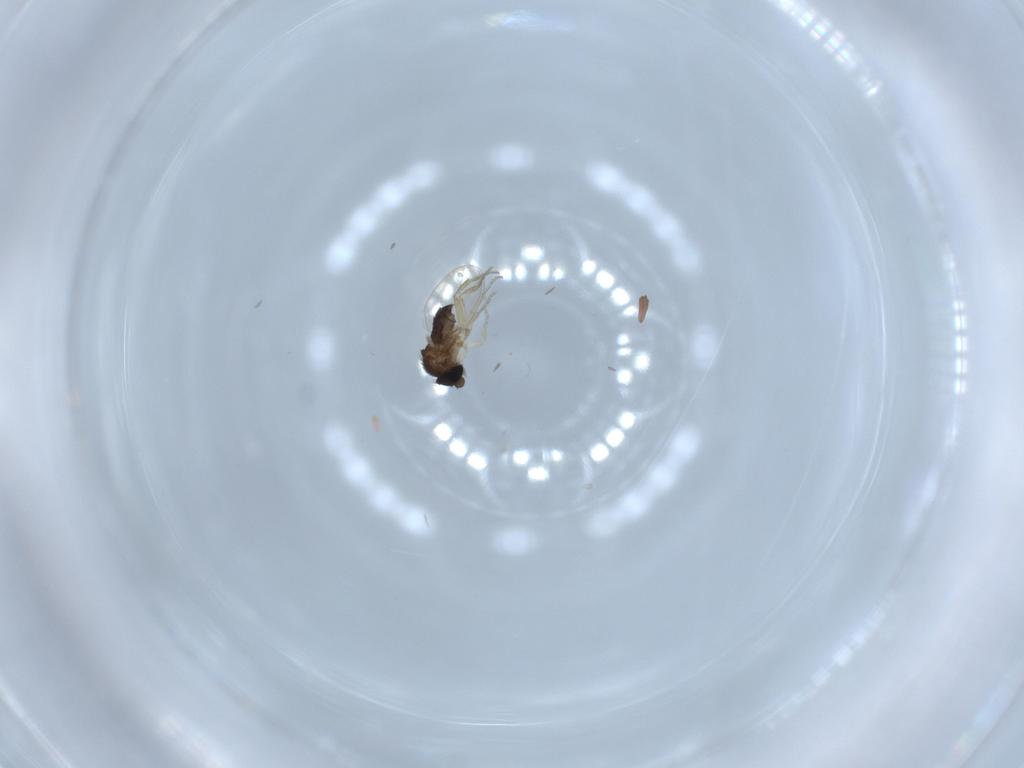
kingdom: Animalia
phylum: Arthropoda
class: Insecta
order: Diptera
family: Phoridae
